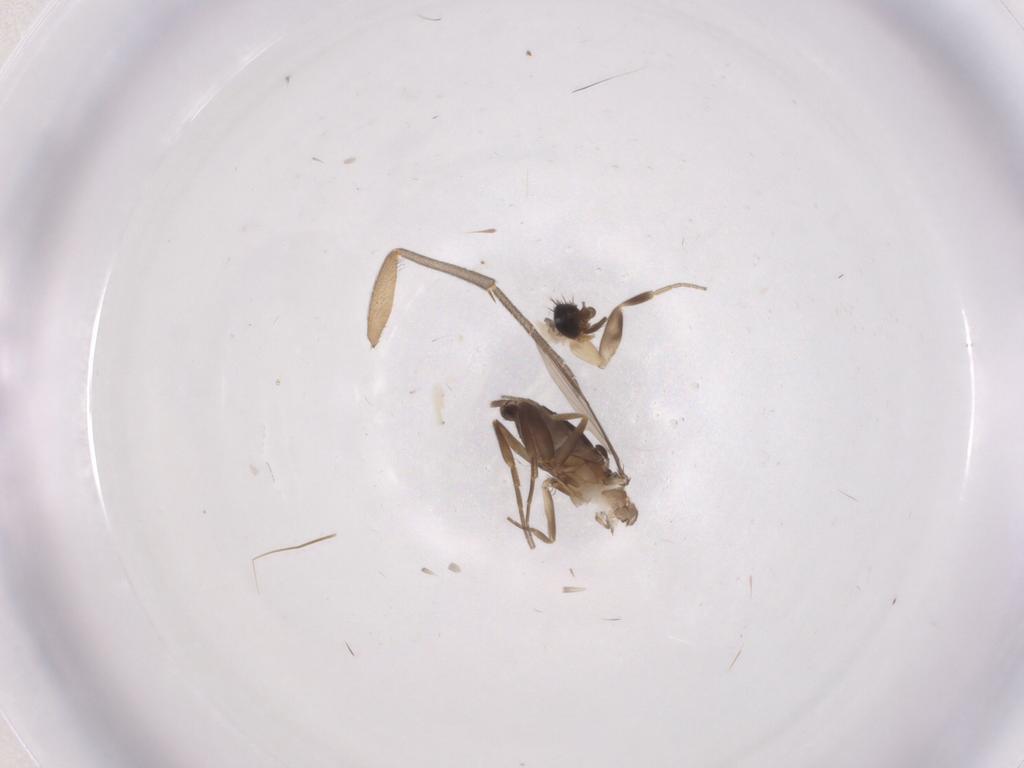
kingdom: Animalia
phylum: Arthropoda
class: Insecta
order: Diptera
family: Phoridae
